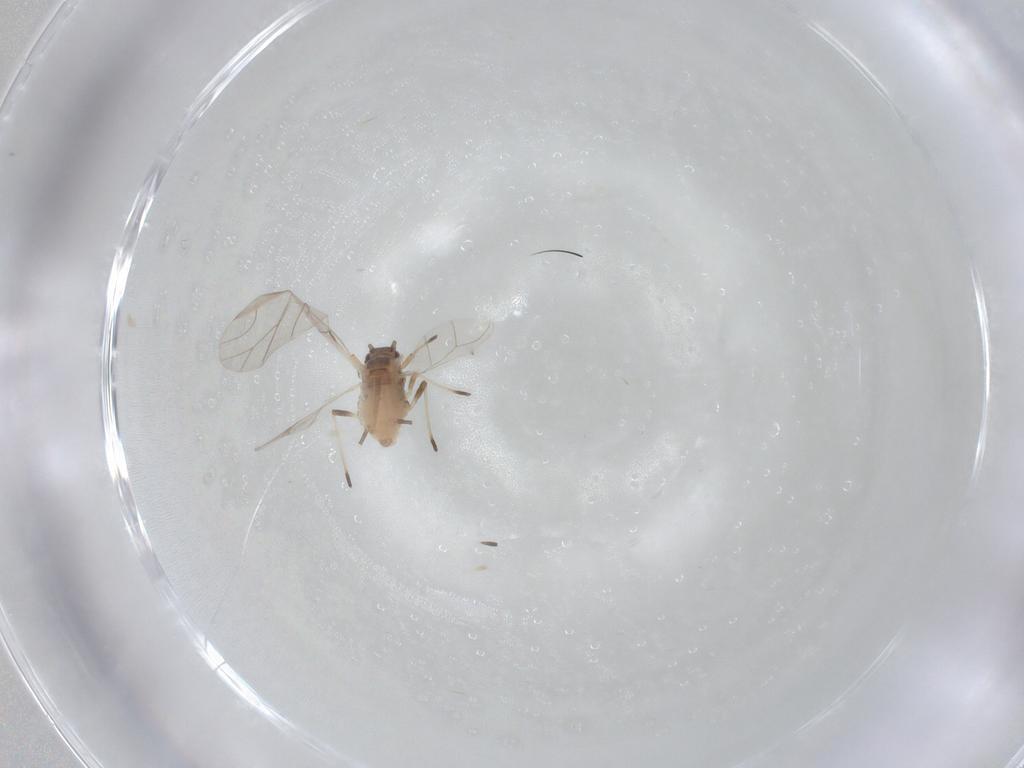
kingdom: Animalia
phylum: Arthropoda
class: Insecta
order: Hemiptera
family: Aphididae
